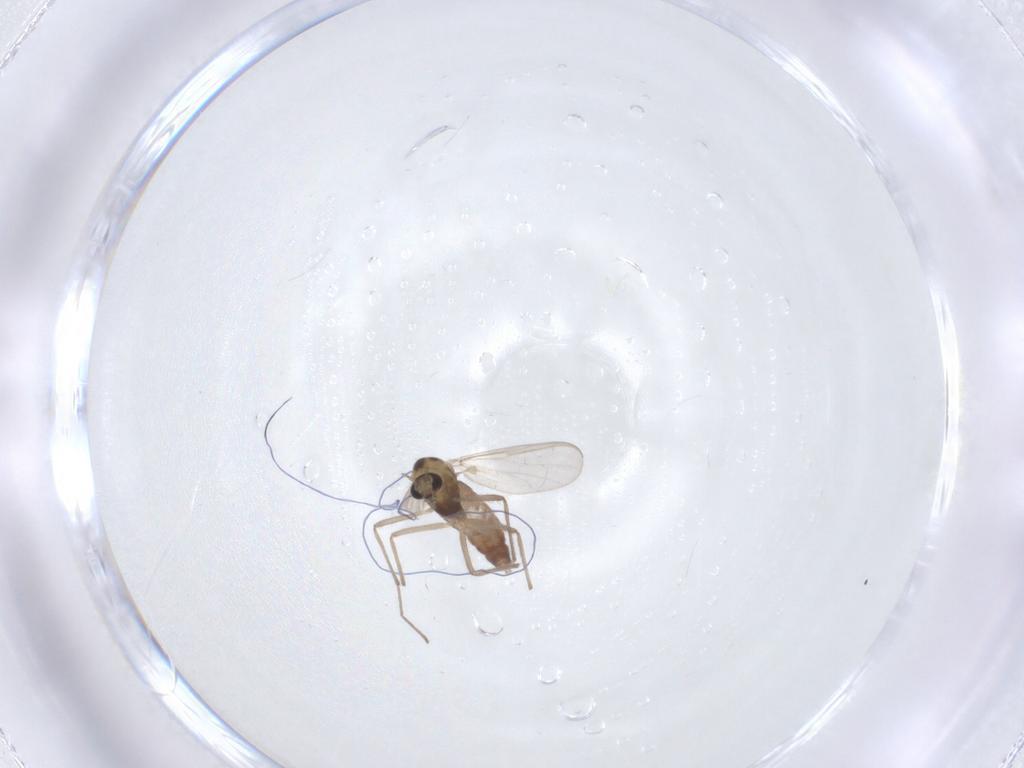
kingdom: Animalia
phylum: Arthropoda
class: Insecta
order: Diptera
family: Chironomidae
